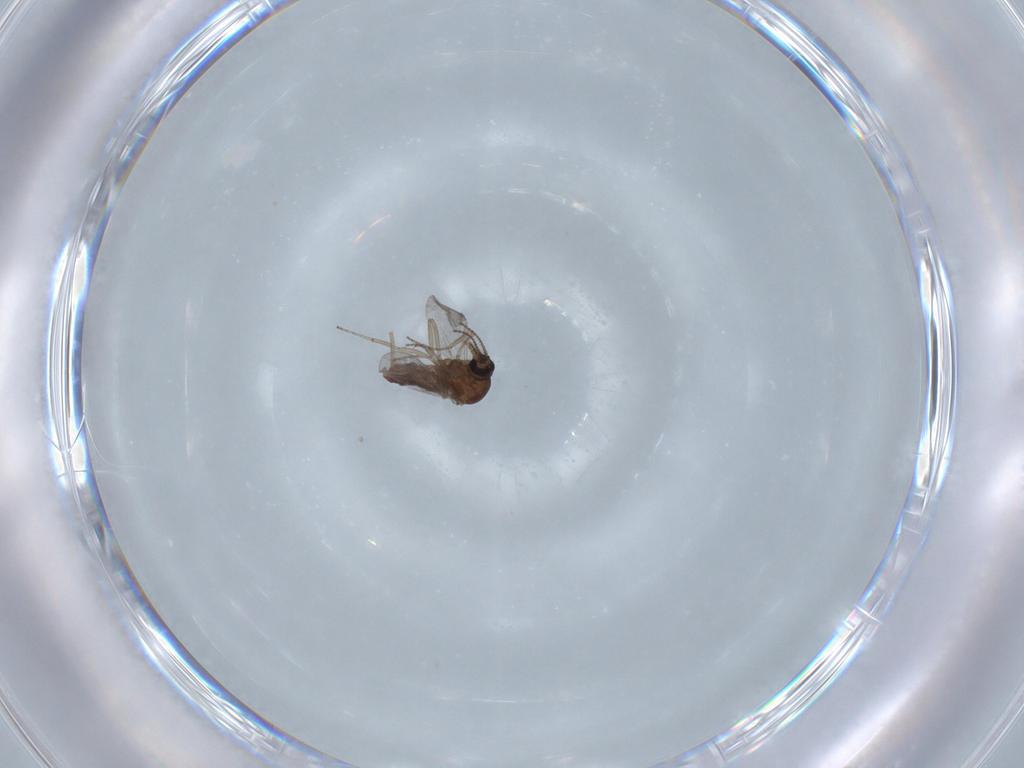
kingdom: Animalia
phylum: Arthropoda
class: Insecta
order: Diptera
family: Ceratopogonidae
